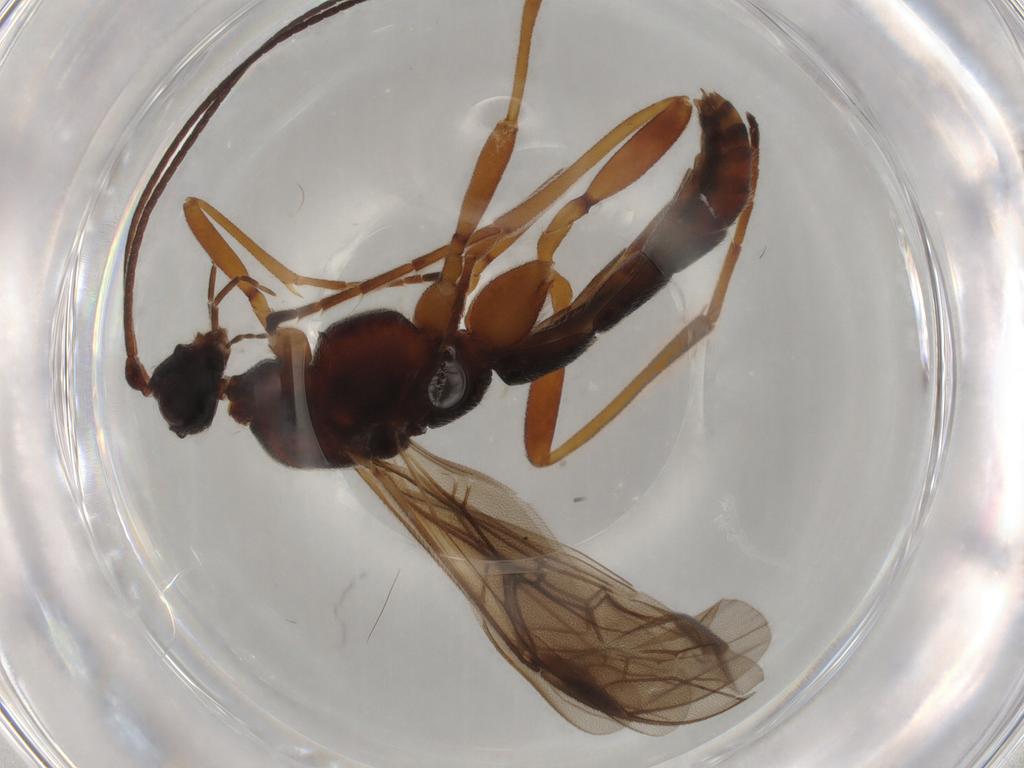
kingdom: Animalia
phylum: Arthropoda
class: Insecta
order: Hymenoptera
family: Braconidae
